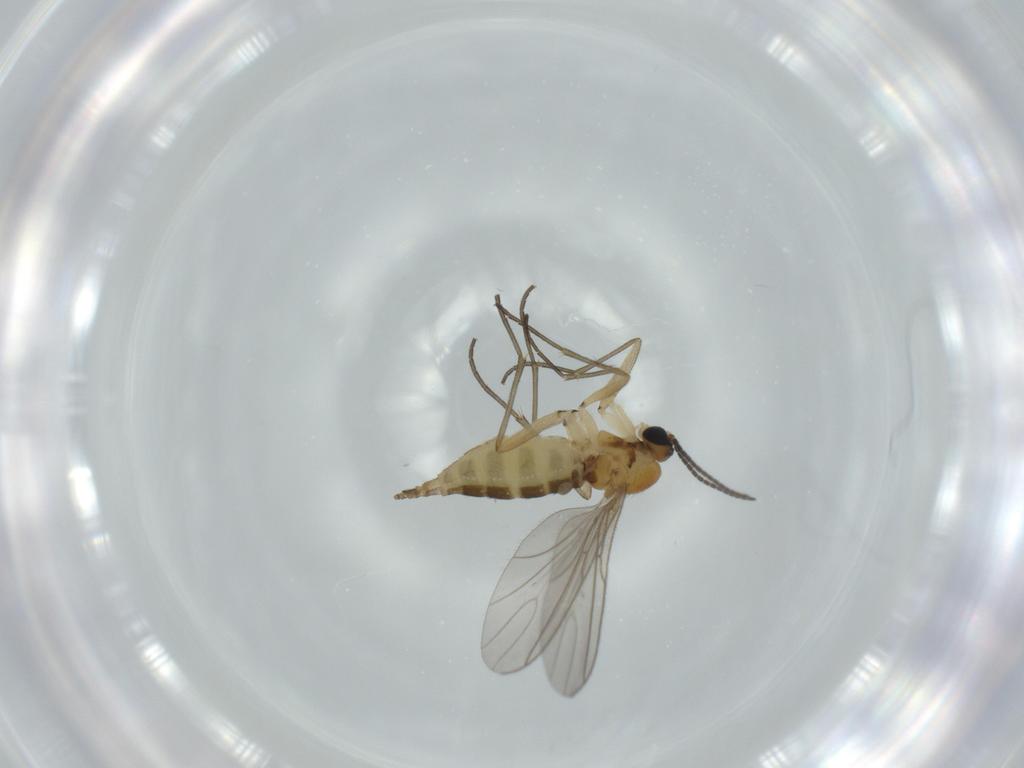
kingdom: Animalia
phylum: Arthropoda
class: Insecta
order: Diptera
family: Sciaridae
